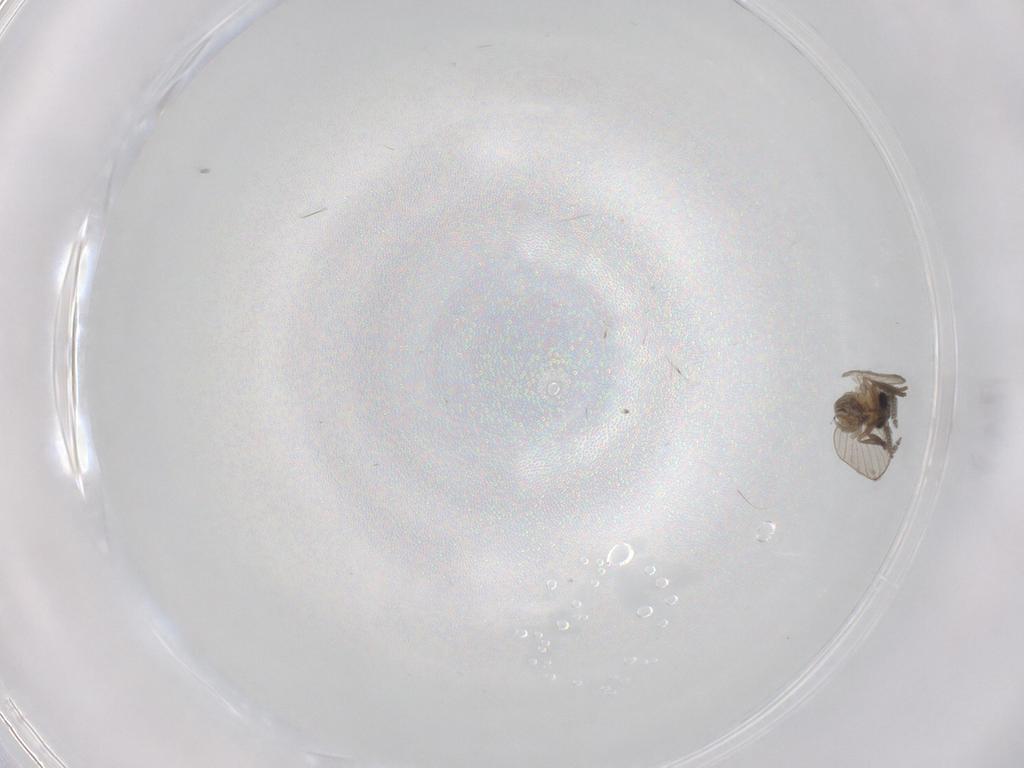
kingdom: Animalia
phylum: Arthropoda
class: Insecta
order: Diptera
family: Psychodidae
